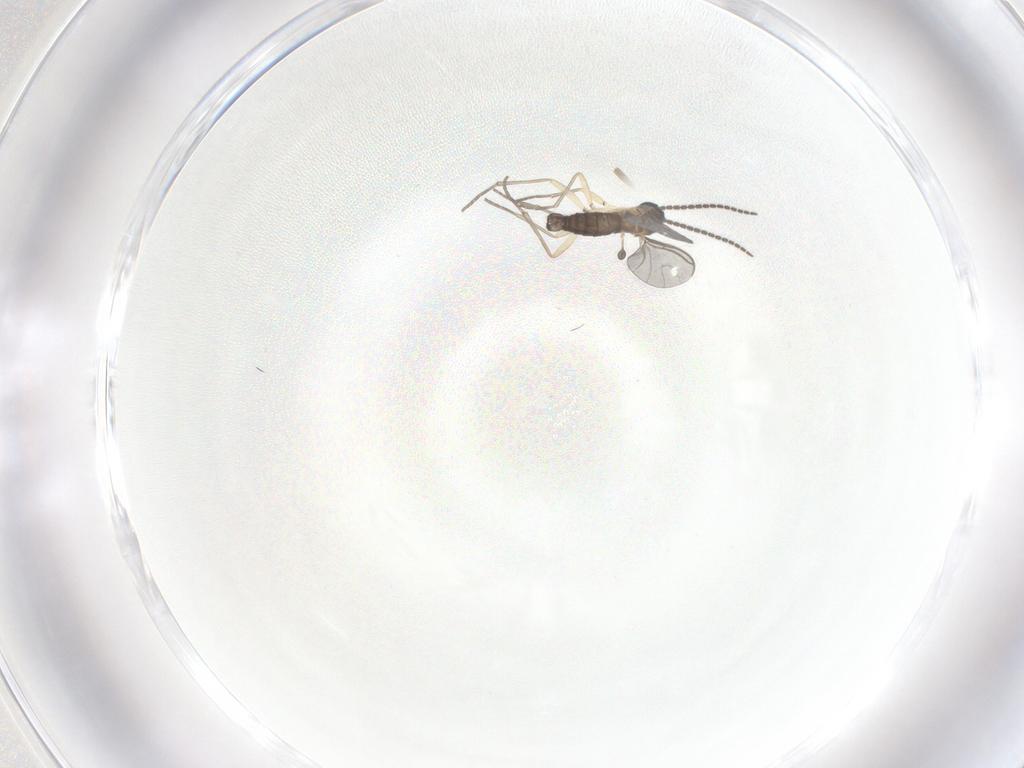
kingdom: Animalia
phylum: Arthropoda
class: Insecta
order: Diptera
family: Sciaridae
